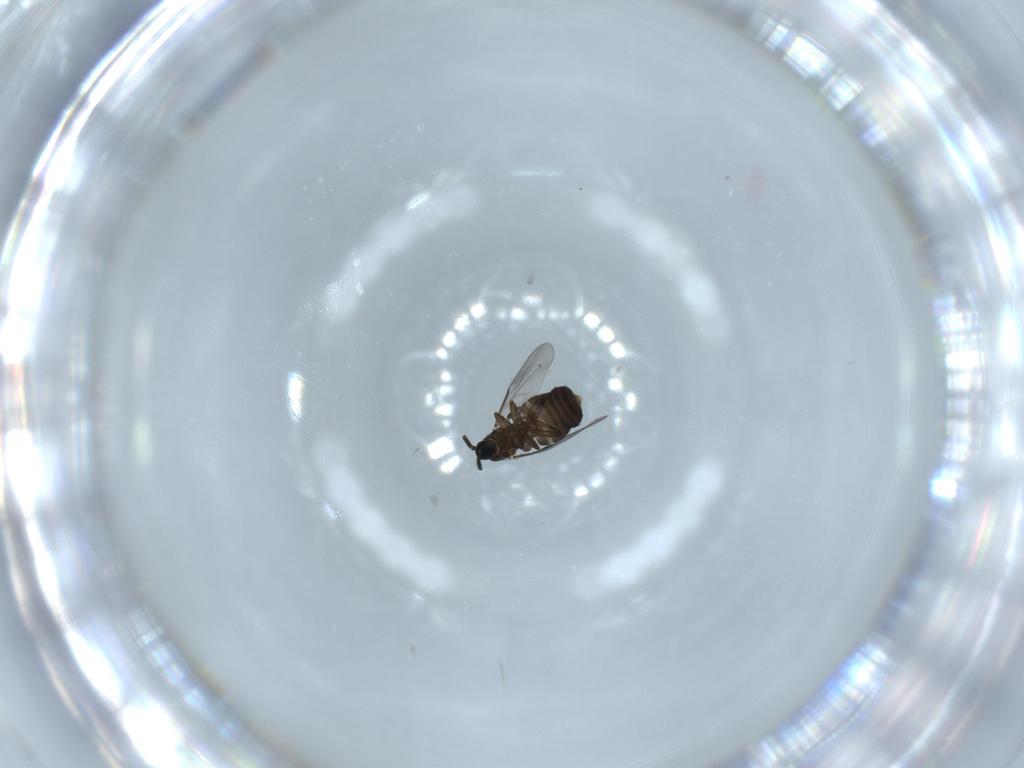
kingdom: Animalia
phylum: Arthropoda
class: Insecta
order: Diptera
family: Scatopsidae
